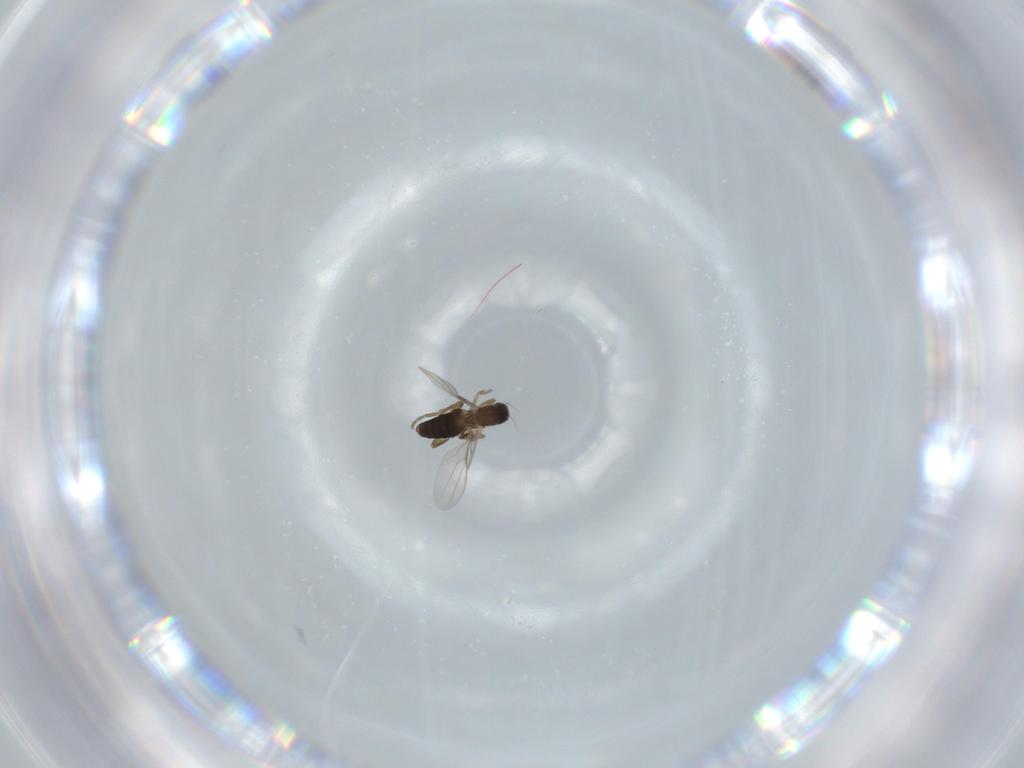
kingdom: Animalia
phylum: Arthropoda
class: Insecta
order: Diptera
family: Phoridae
